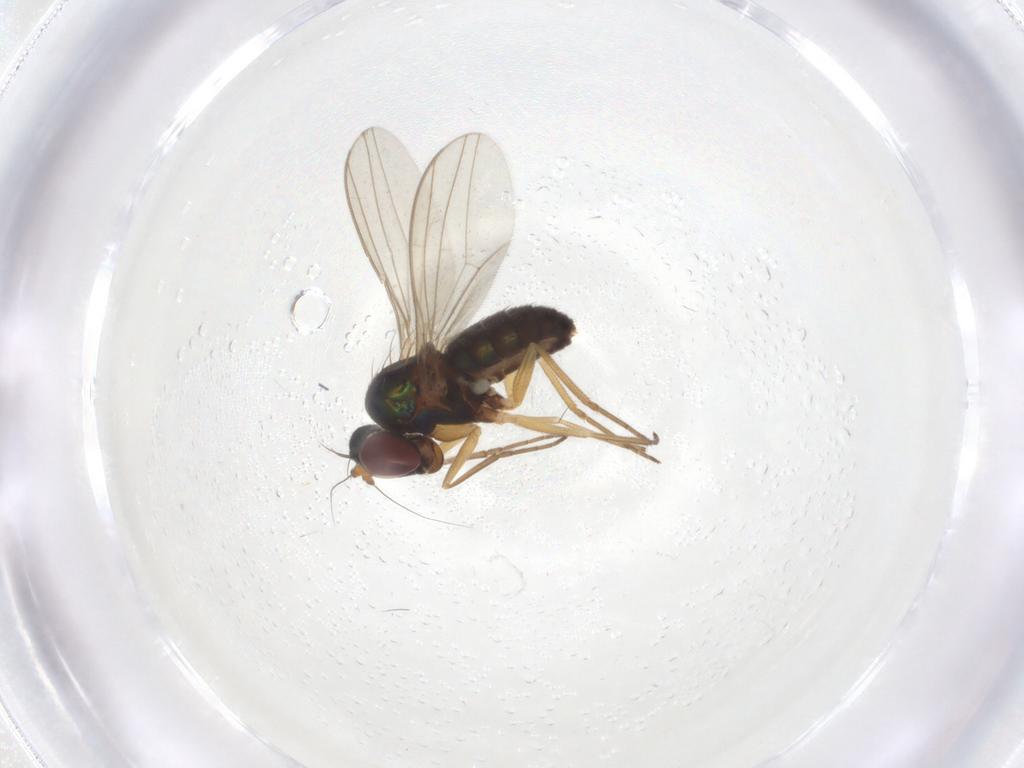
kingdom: Animalia
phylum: Arthropoda
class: Insecta
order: Diptera
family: Dolichopodidae
